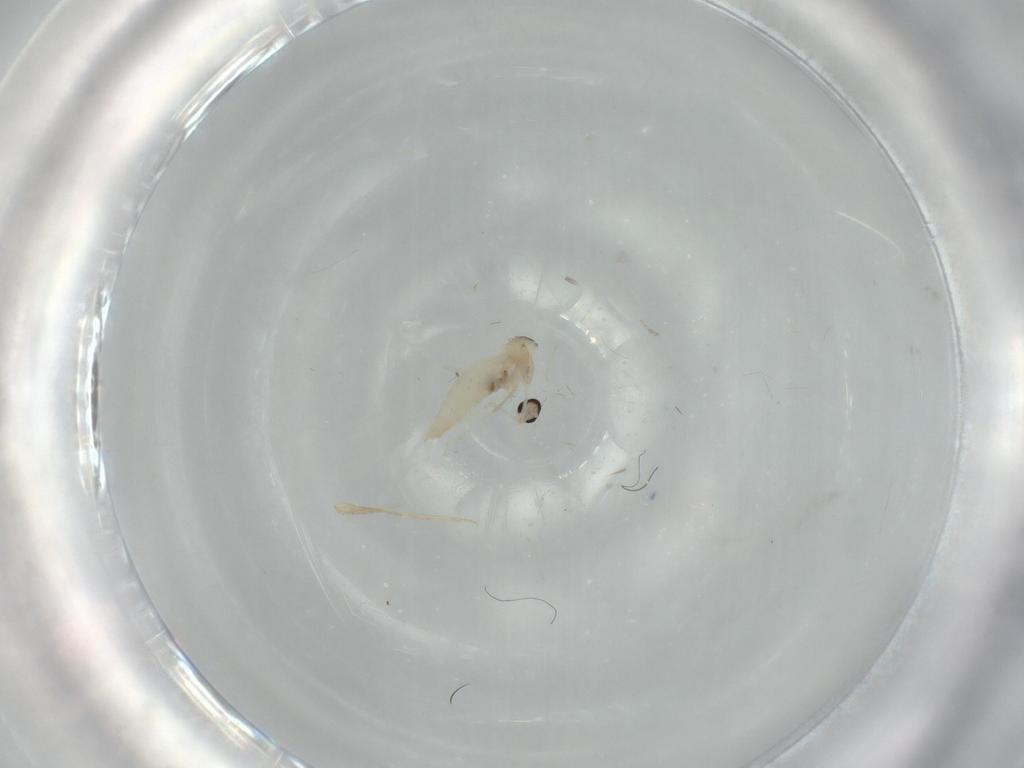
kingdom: Animalia
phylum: Arthropoda
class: Insecta
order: Diptera
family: Cecidomyiidae
